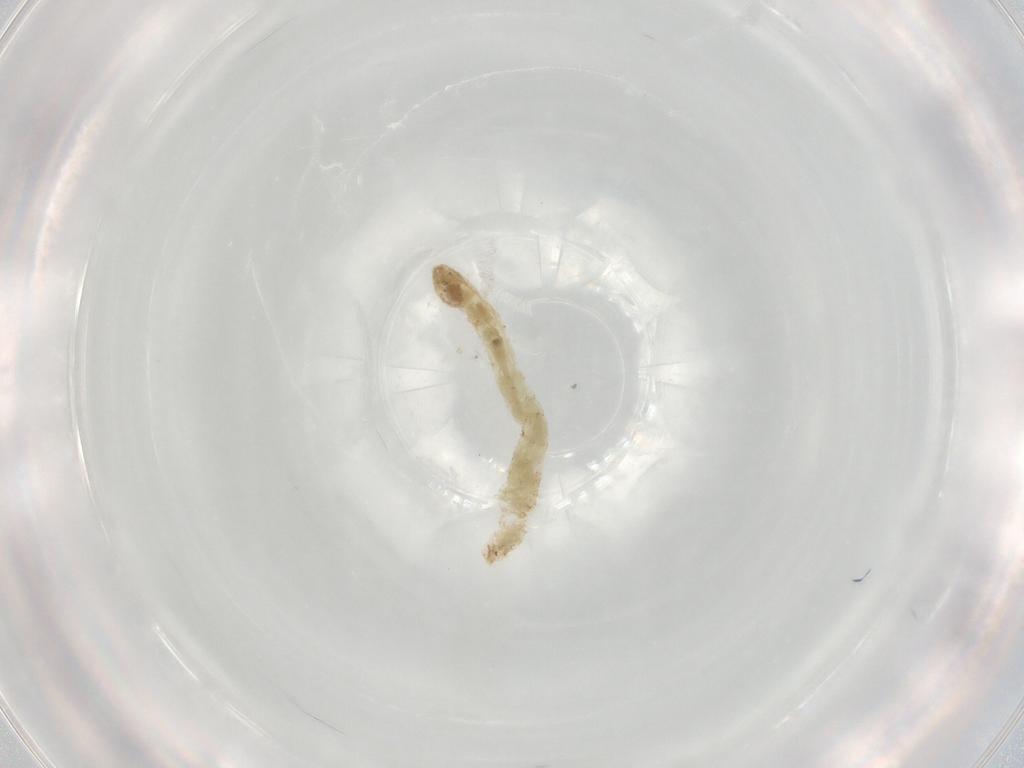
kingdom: Animalia
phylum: Arthropoda
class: Insecta
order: Diptera
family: Chironomidae
